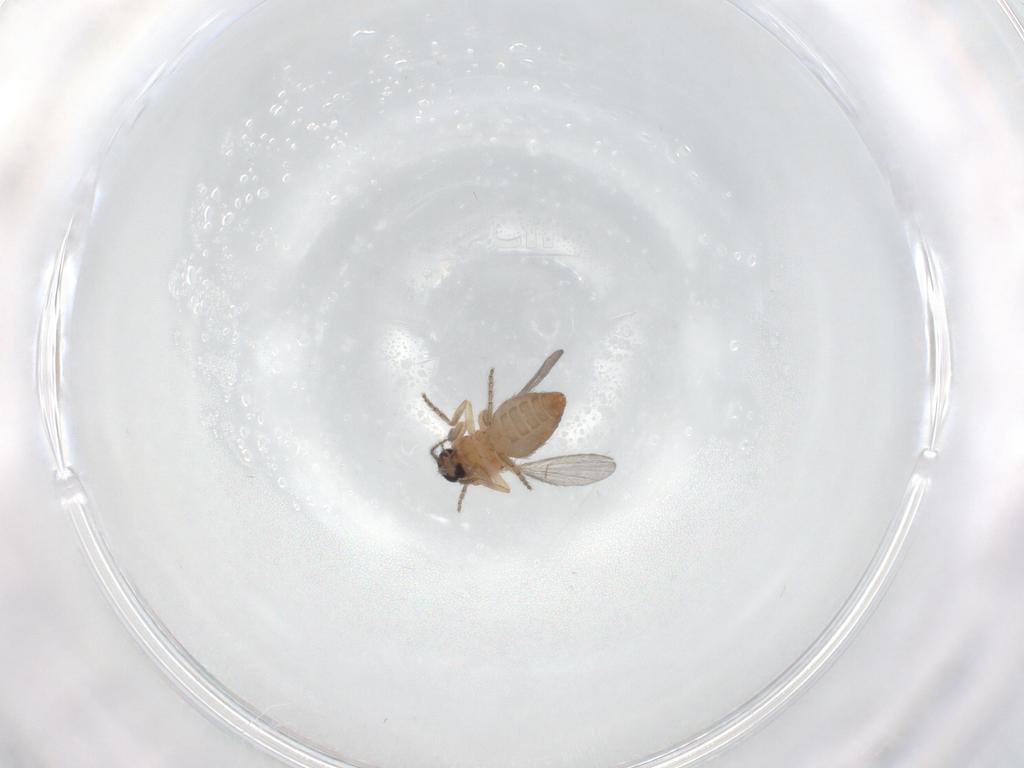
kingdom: Animalia
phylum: Arthropoda
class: Insecta
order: Diptera
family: Ceratopogonidae
